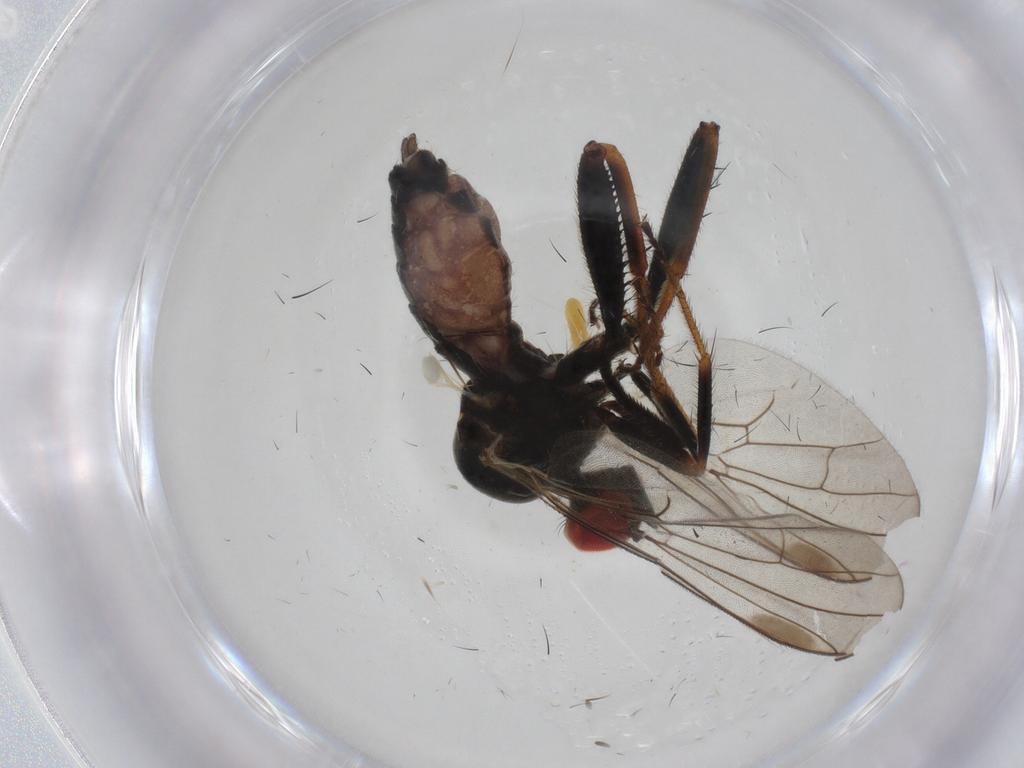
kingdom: Animalia
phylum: Arthropoda
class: Insecta
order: Diptera
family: Keroplatidae
